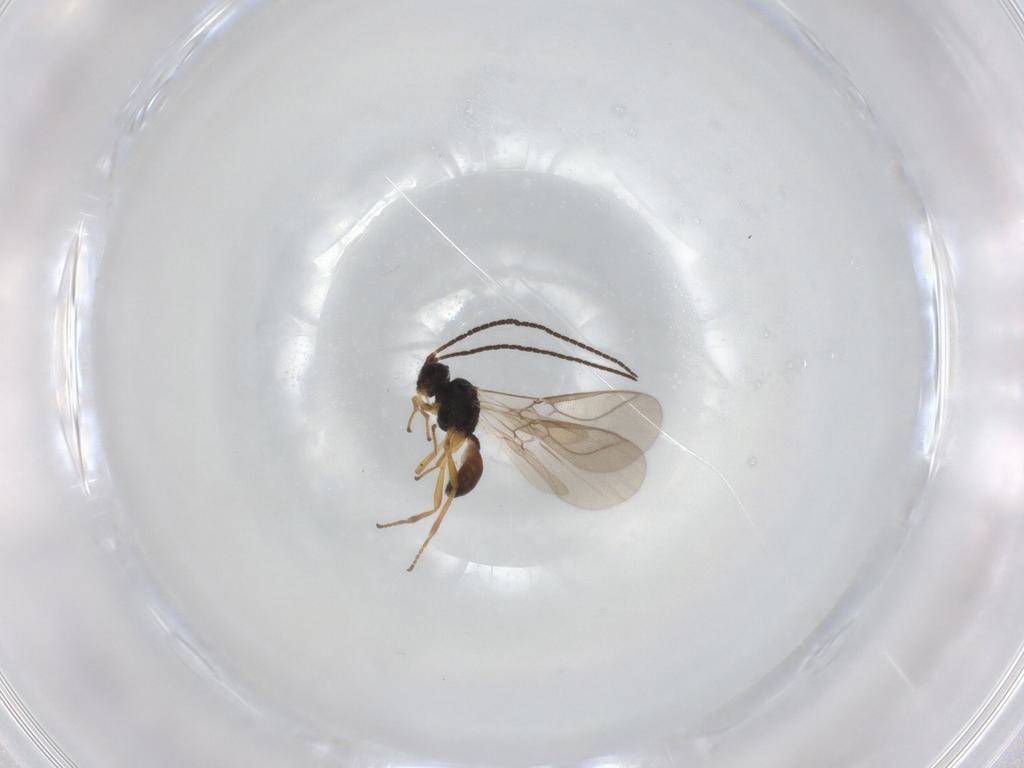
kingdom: Animalia
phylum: Arthropoda
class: Insecta
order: Hymenoptera
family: Braconidae
